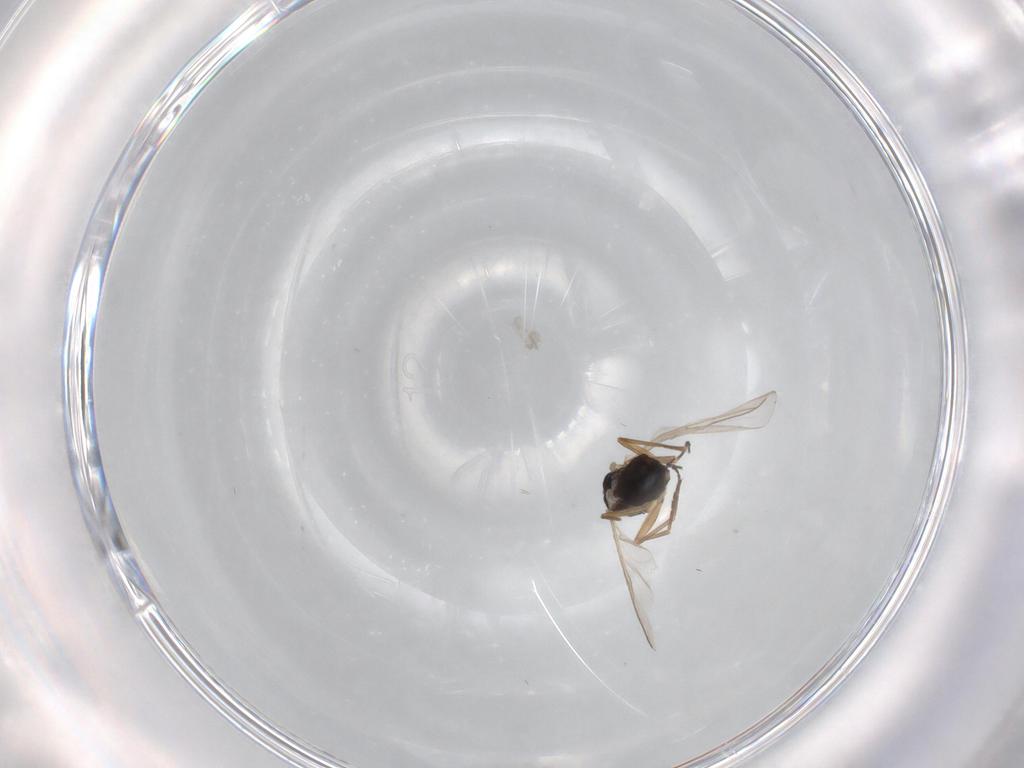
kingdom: Animalia
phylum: Arthropoda
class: Insecta
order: Diptera
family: Sciaridae
